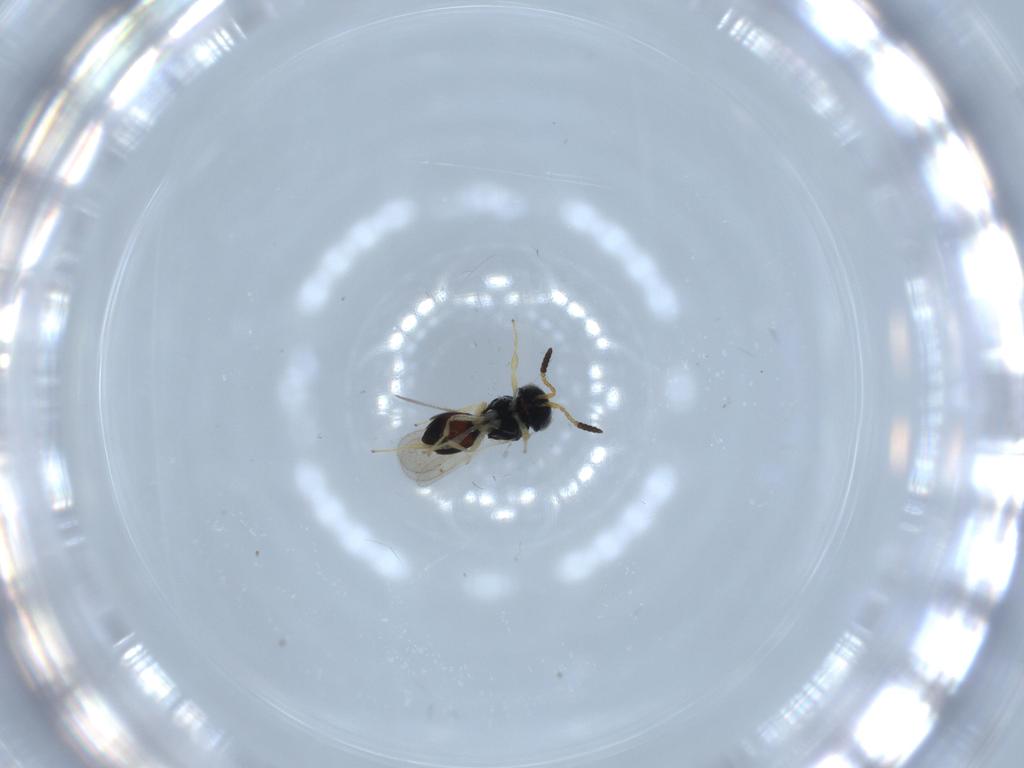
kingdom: Animalia
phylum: Arthropoda
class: Insecta
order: Hymenoptera
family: Scelionidae
